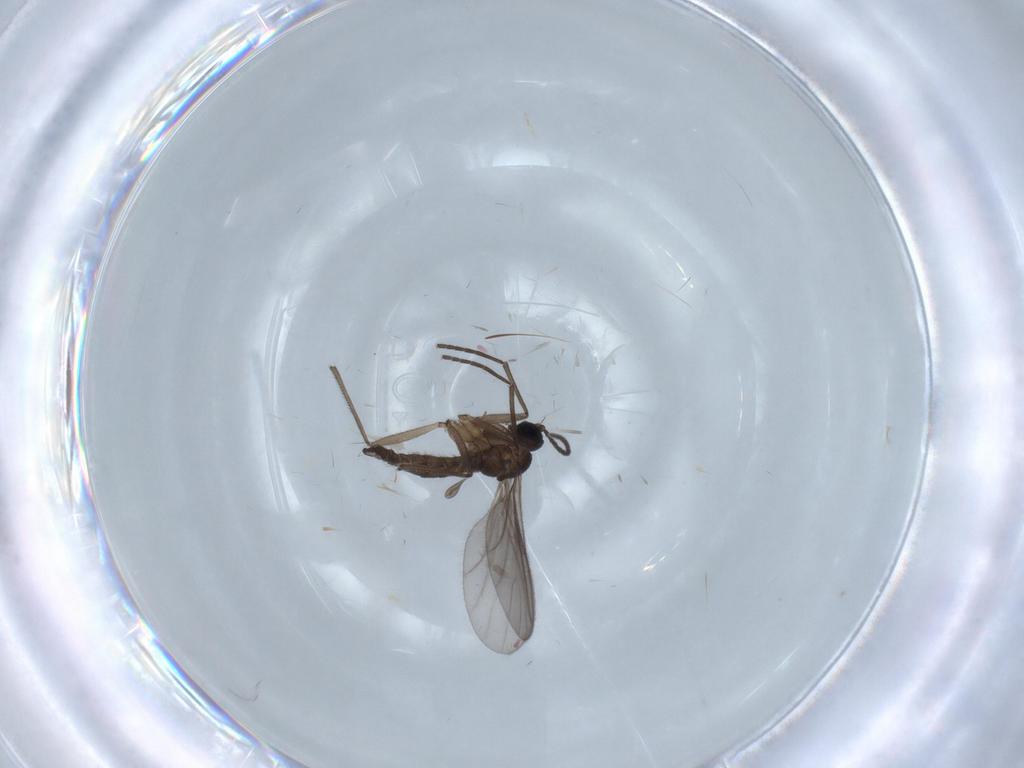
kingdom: Animalia
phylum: Arthropoda
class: Insecta
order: Diptera
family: Sciaridae
